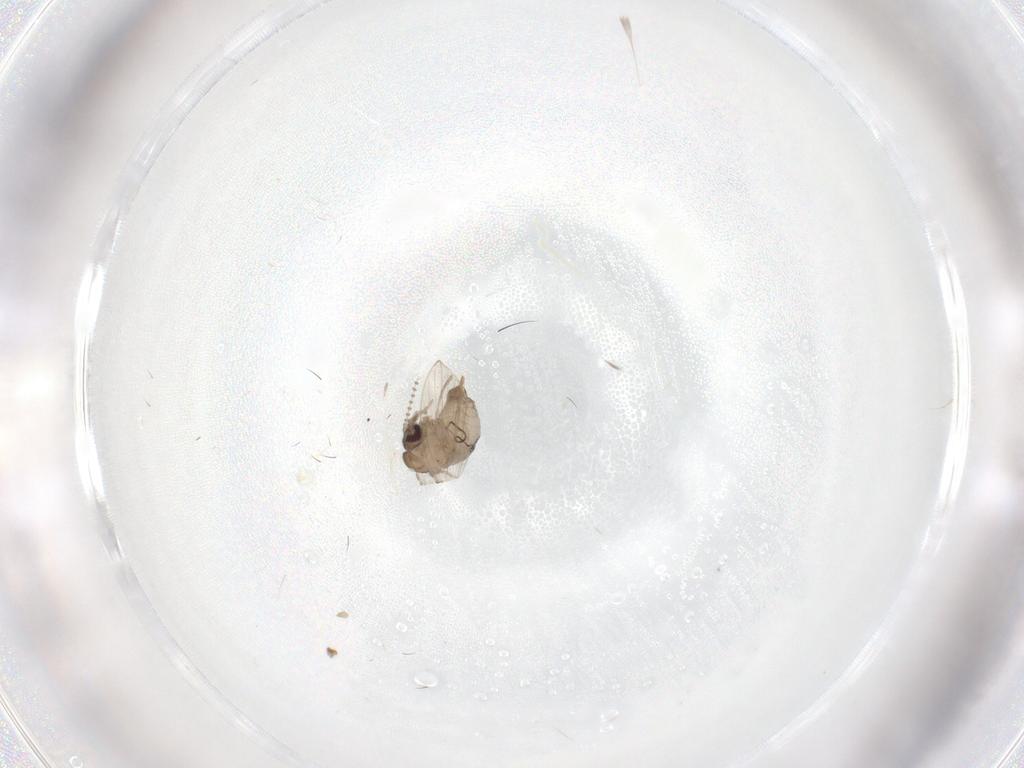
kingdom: Animalia
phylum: Arthropoda
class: Insecta
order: Diptera
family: Psychodidae
